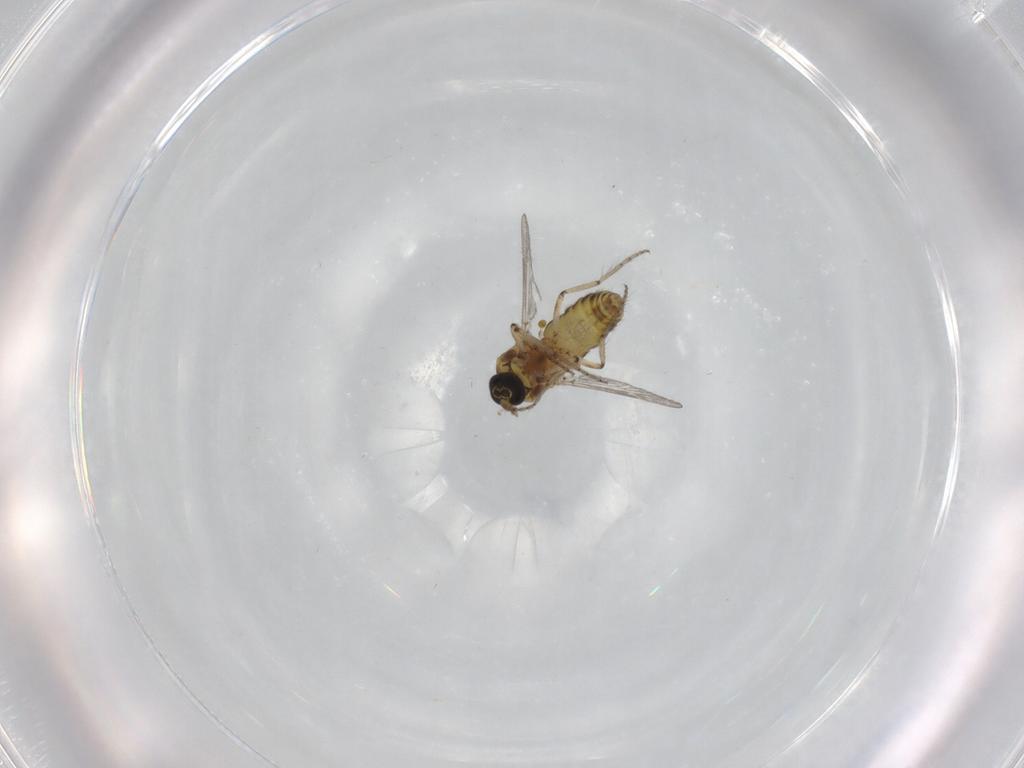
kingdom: Animalia
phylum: Arthropoda
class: Insecta
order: Diptera
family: Ceratopogonidae
